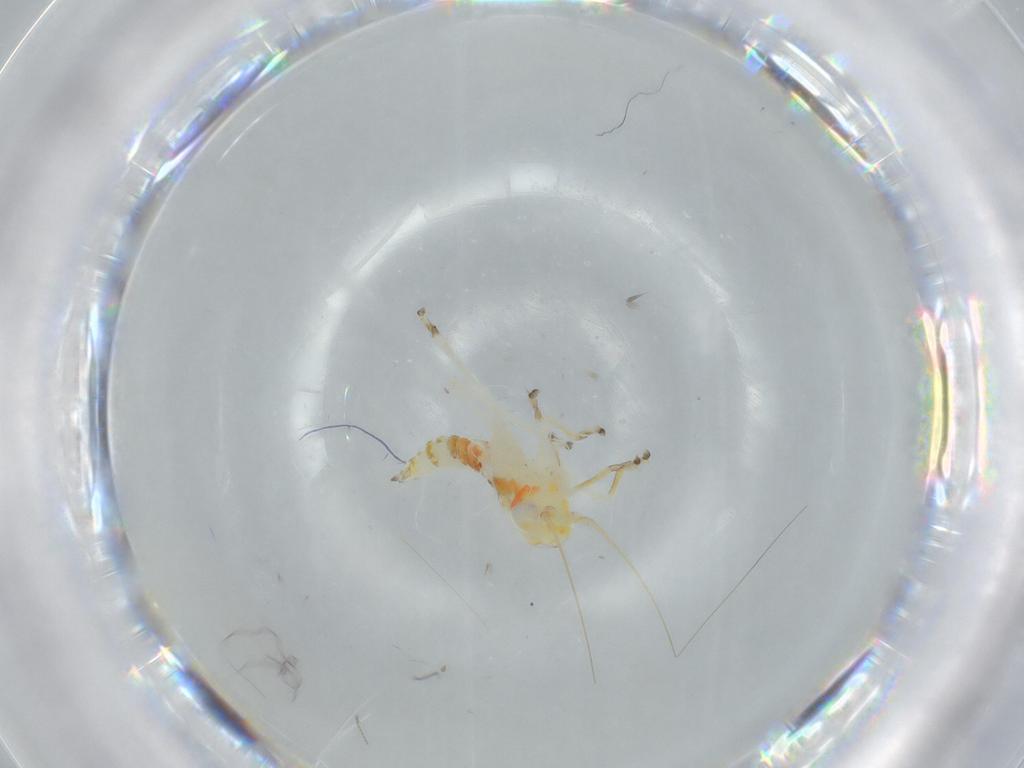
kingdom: Animalia
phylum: Arthropoda
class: Insecta
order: Hemiptera
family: Cicadellidae
